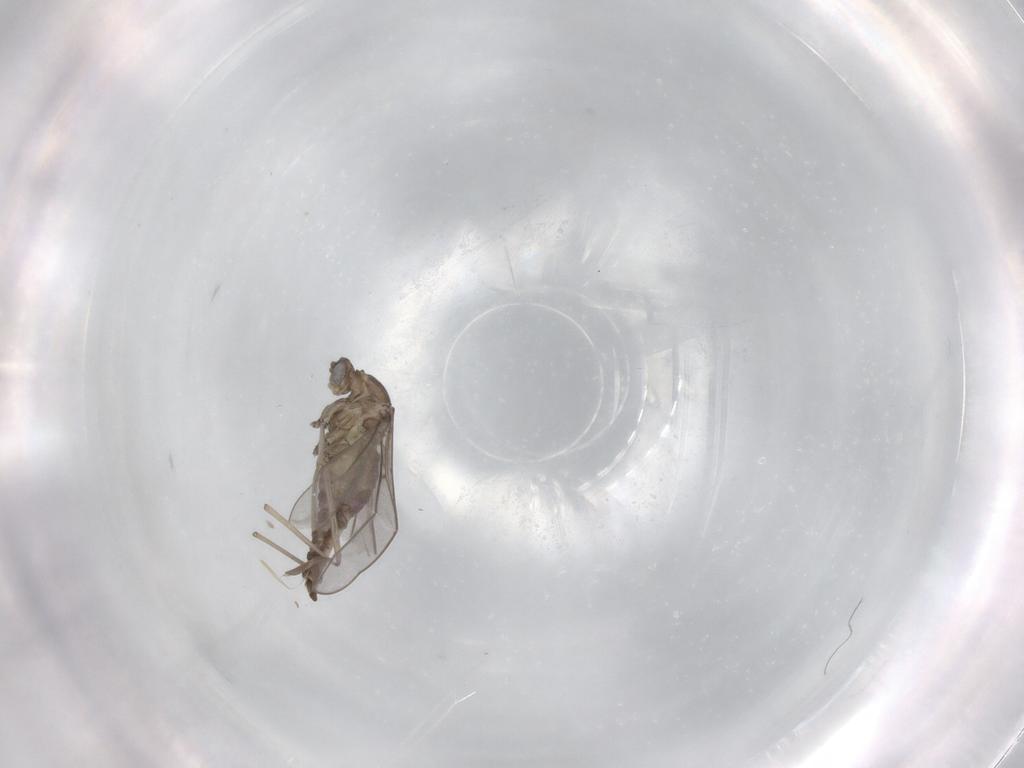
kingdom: Animalia
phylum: Arthropoda
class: Insecta
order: Diptera
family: Cecidomyiidae
